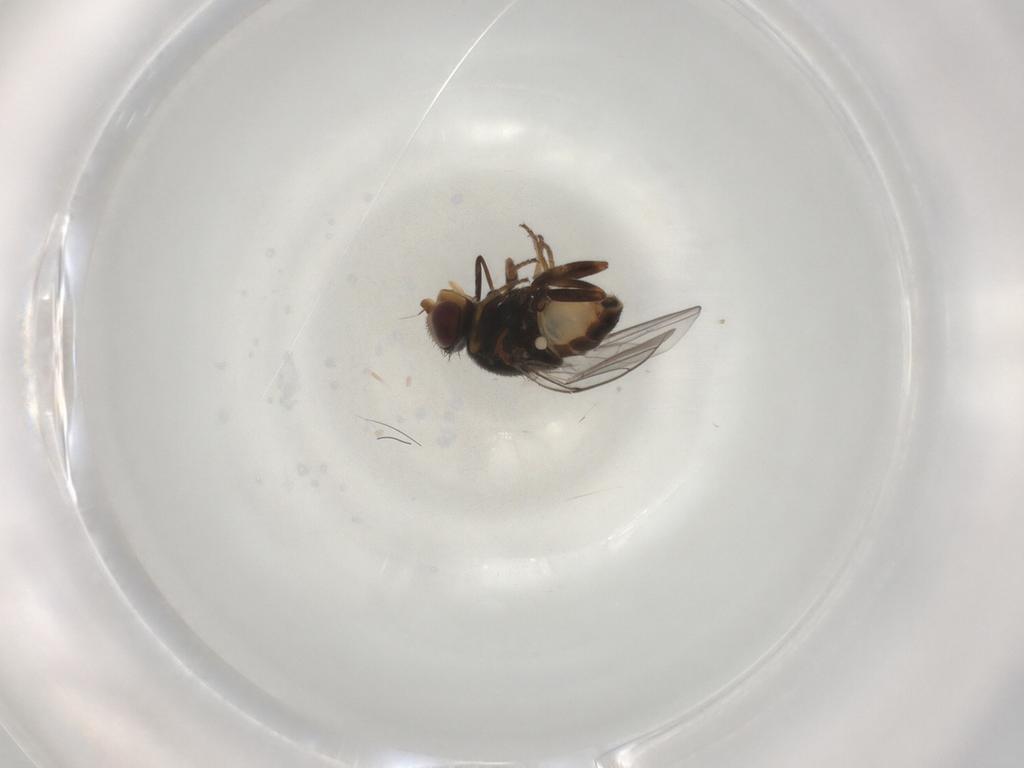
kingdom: Animalia
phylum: Arthropoda
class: Insecta
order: Diptera
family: Chloropidae
